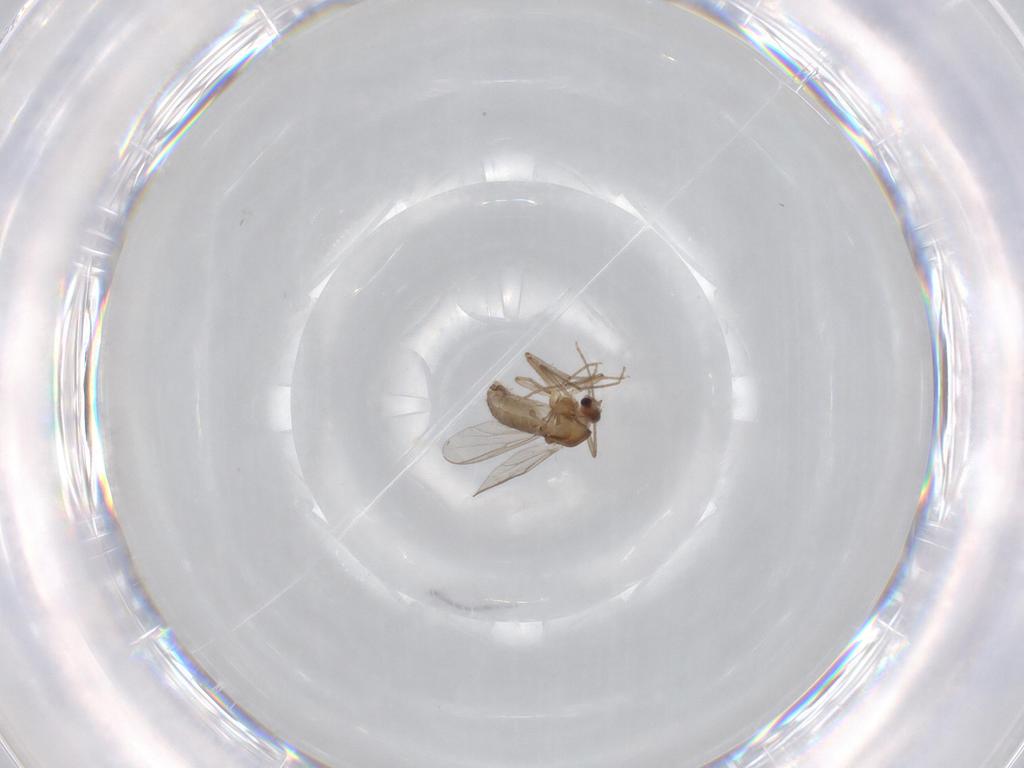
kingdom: Animalia
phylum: Arthropoda
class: Insecta
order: Diptera
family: Chironomidae
